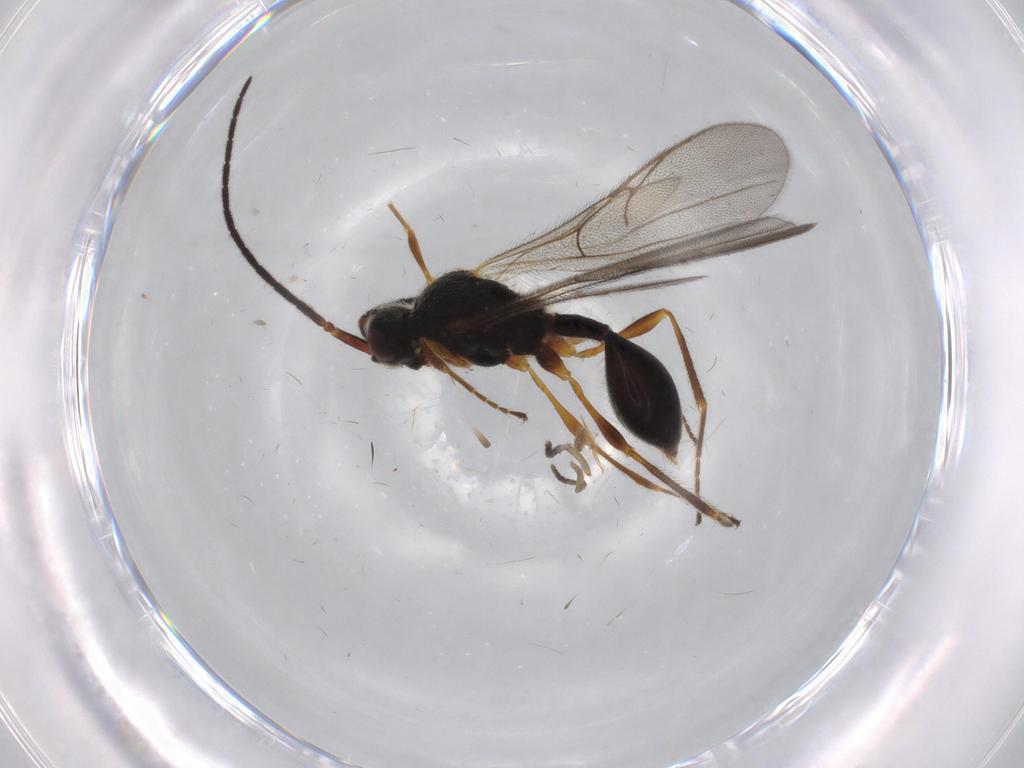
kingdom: Animalia
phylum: Arthropoda
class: Insecta
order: Hymenoptera
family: Diapriidae
